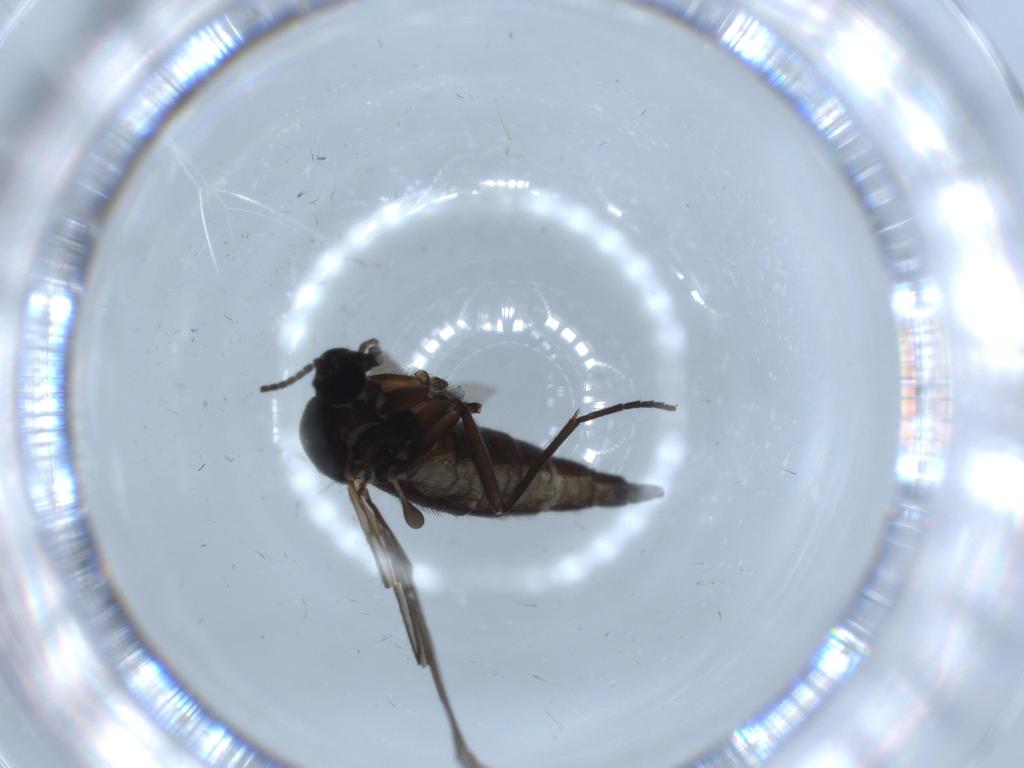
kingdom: Animalia
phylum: Arthropoda
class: Insecta
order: Diptera
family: Sciaridae
